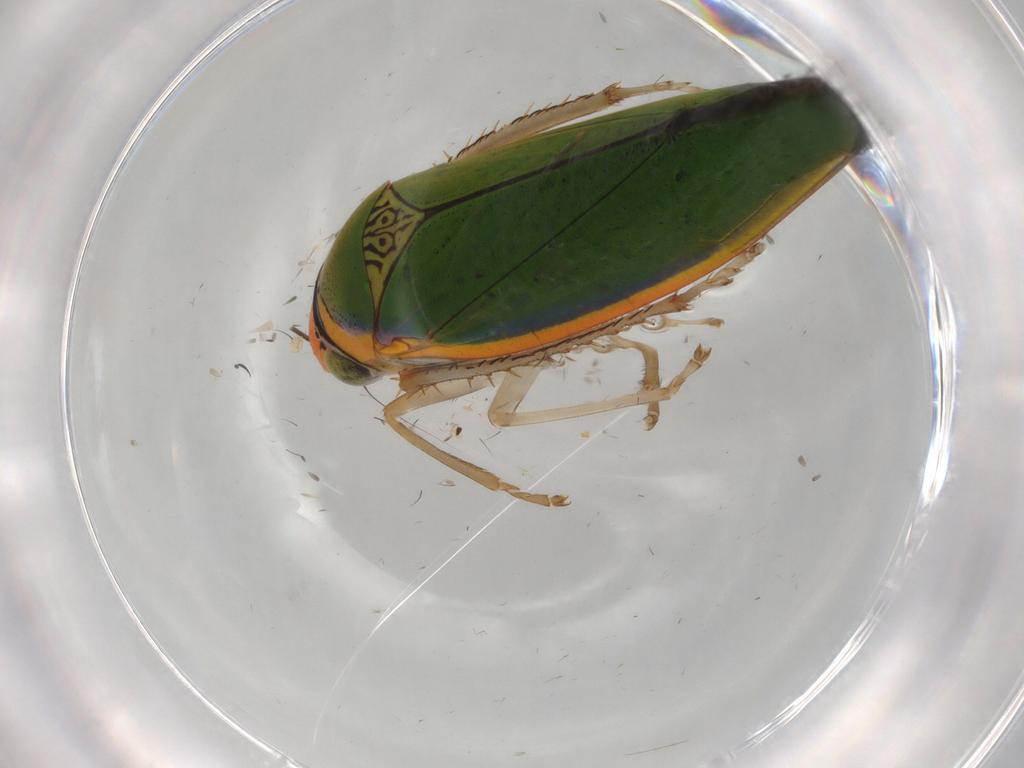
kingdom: Animalia
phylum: Arthropoda
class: Insecta
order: Hemiptera
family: Cicadellidae
